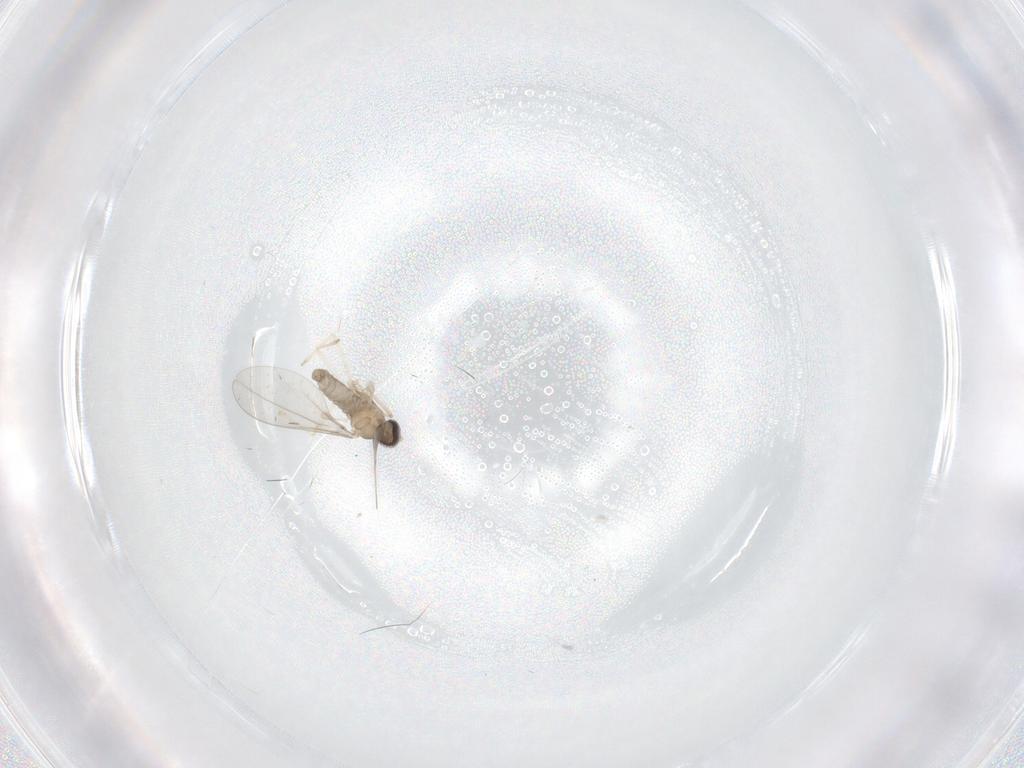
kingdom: Animalia
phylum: Arthropoda
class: Insecta
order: Diptera
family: Cecidomyiidae
